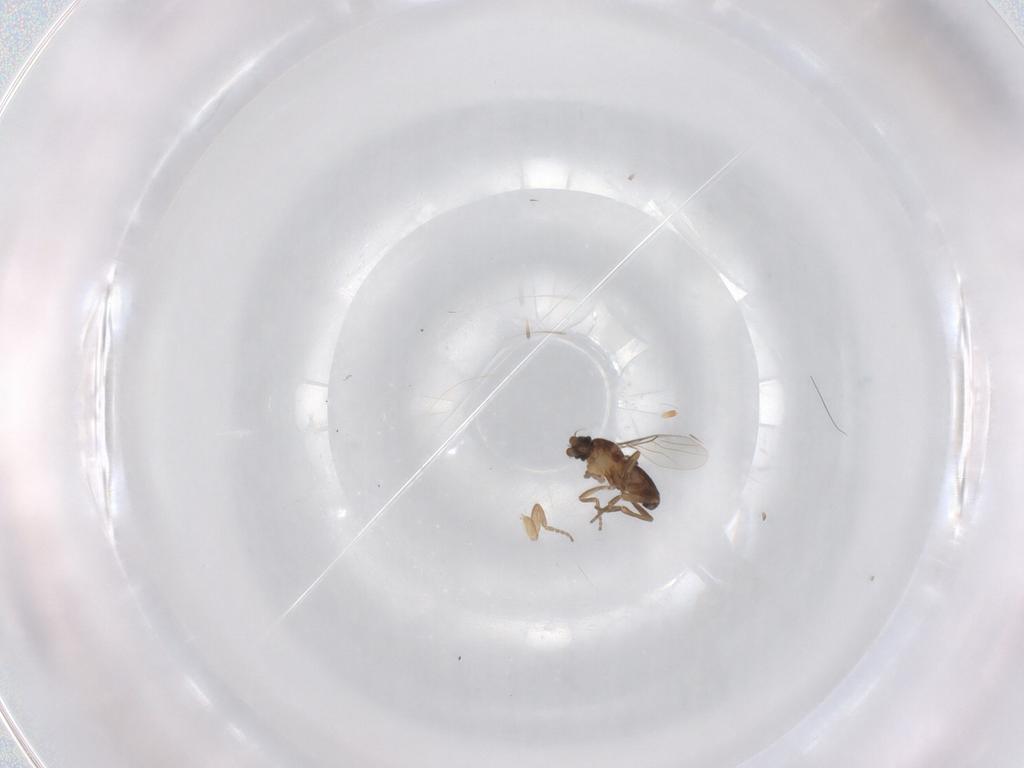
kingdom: Animalia
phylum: Arthropoda
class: Insecta
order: Diptera
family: Phoridae
